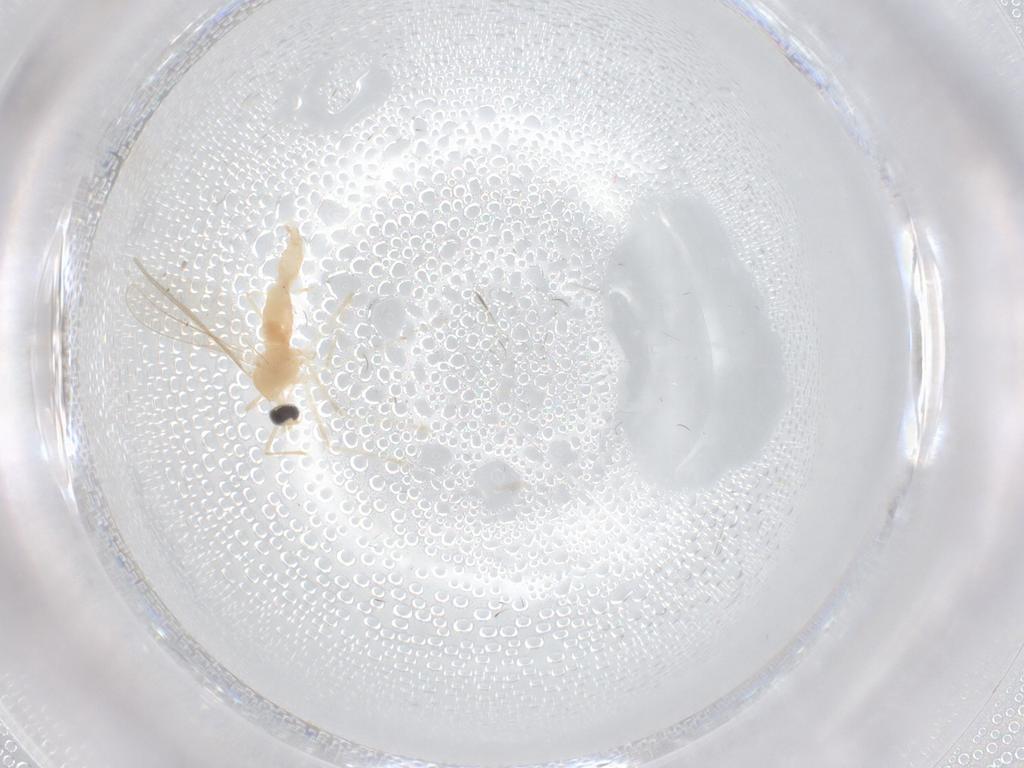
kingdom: Animalia
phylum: Arthropoda
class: Insecta
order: Diptera
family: Cecidomyiidae
